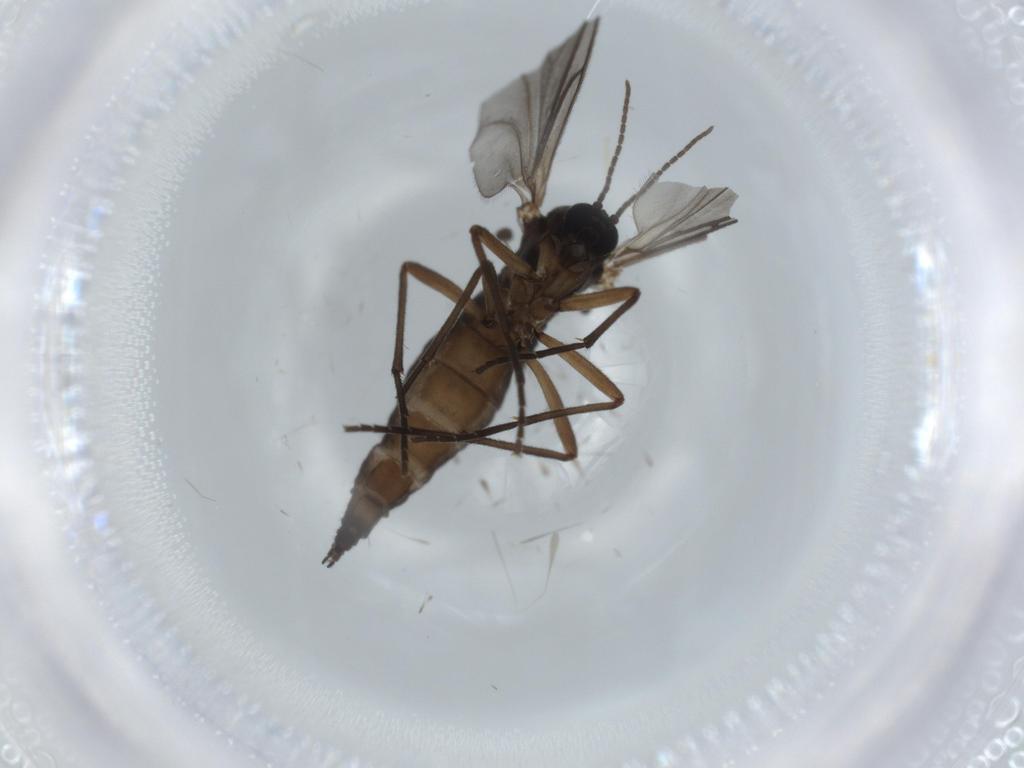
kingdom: Animalia
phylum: Arthropoda
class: Insecta
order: Diptera
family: Sciaridae
